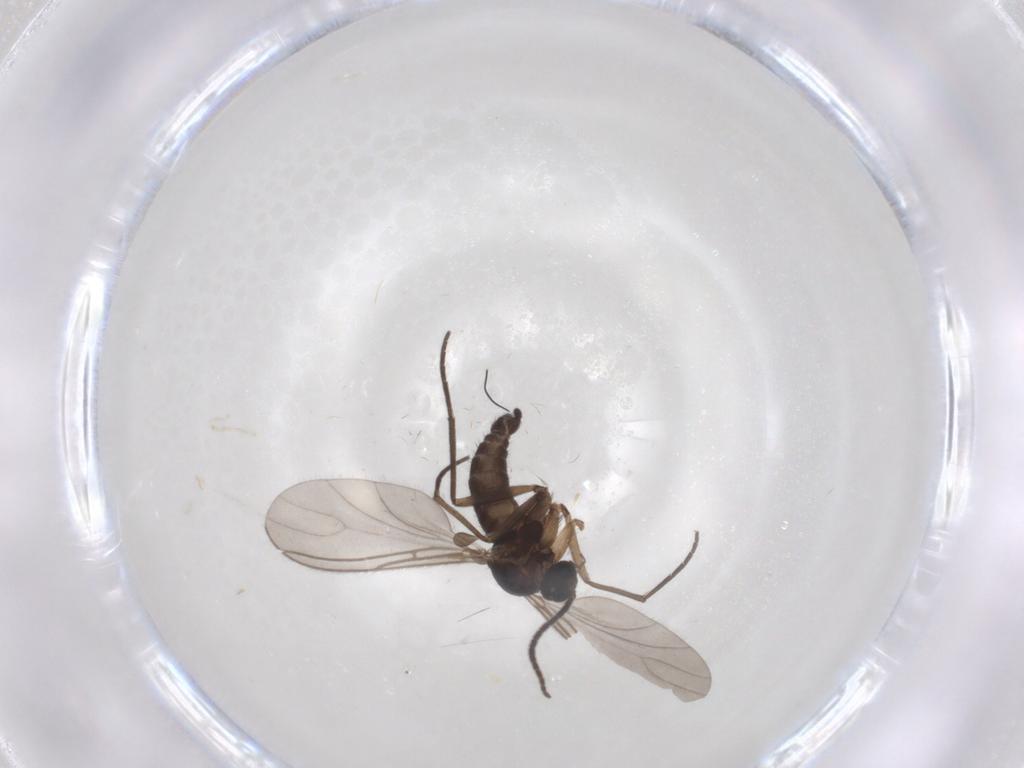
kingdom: Animalia
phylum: Arthropoda
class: Insecta
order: Diptera
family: Sciaridae
